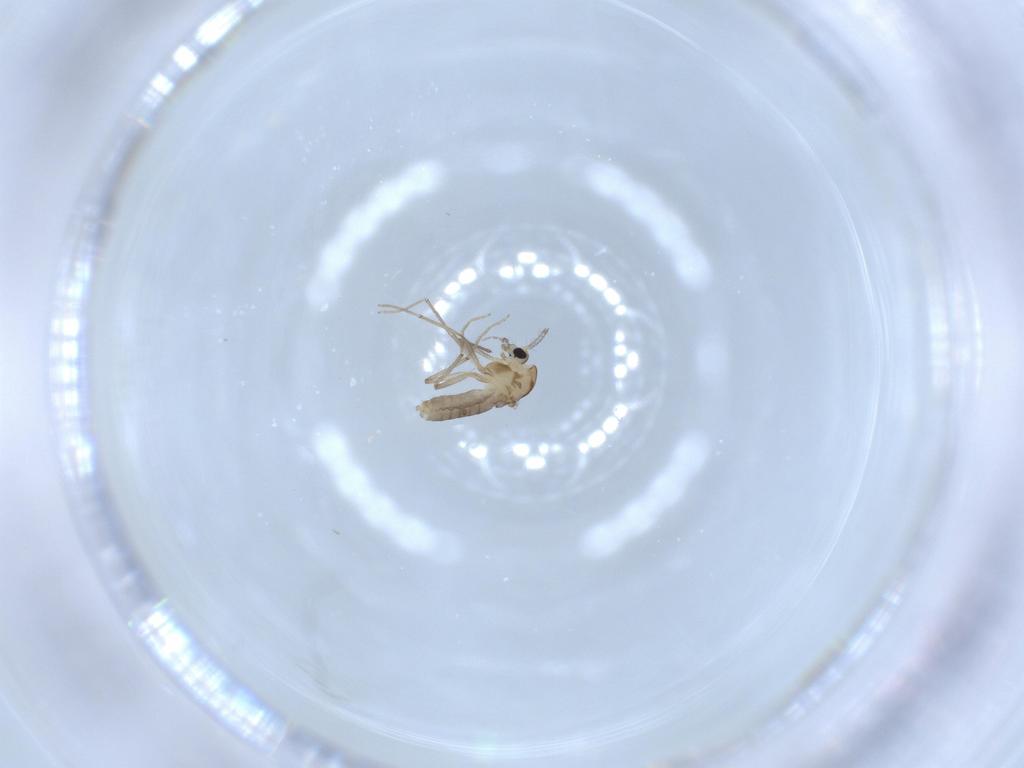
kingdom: Animalia
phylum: Arthropoda
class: Insecta
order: Diptera
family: Chironomidae
